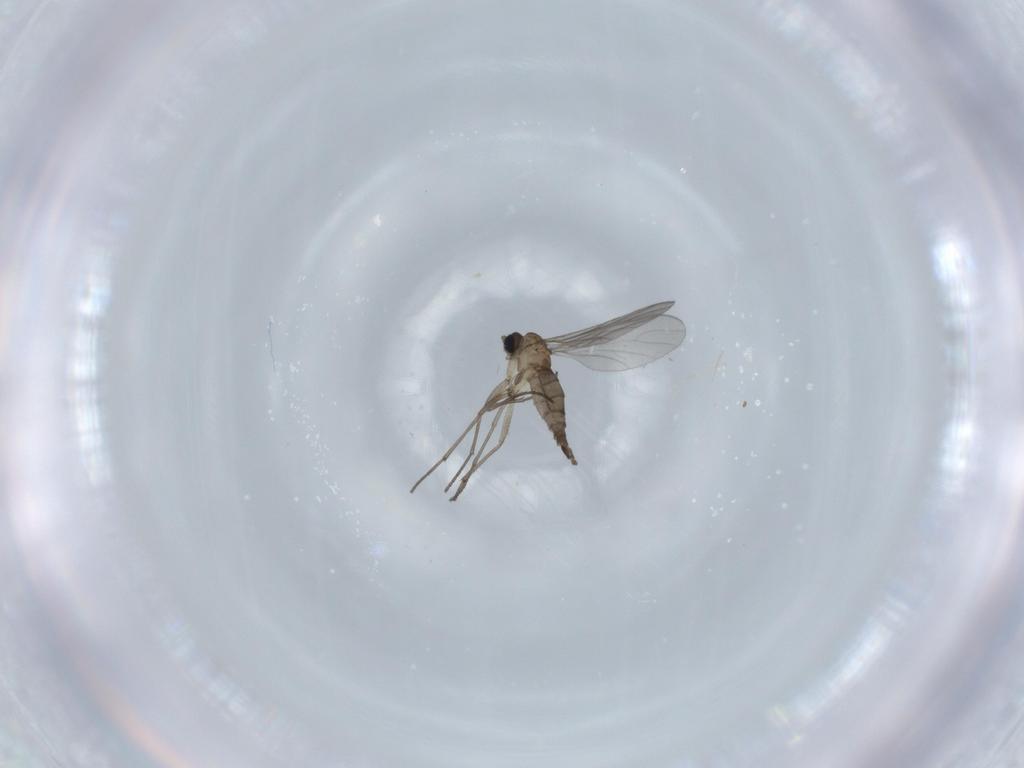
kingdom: Animalia
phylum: Arthropoda
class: Insecta
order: Diptera
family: Sciaridae
